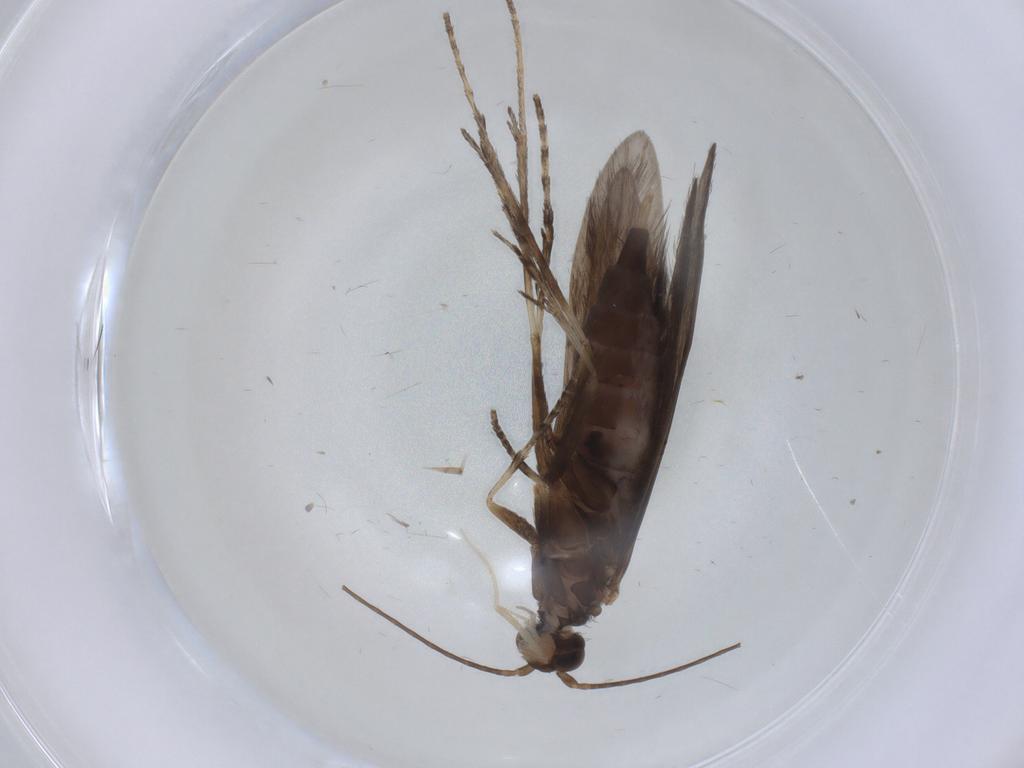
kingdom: Animalia
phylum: Arthropoda
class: Insecta
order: Trichoptera
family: Xiphocentronidae
